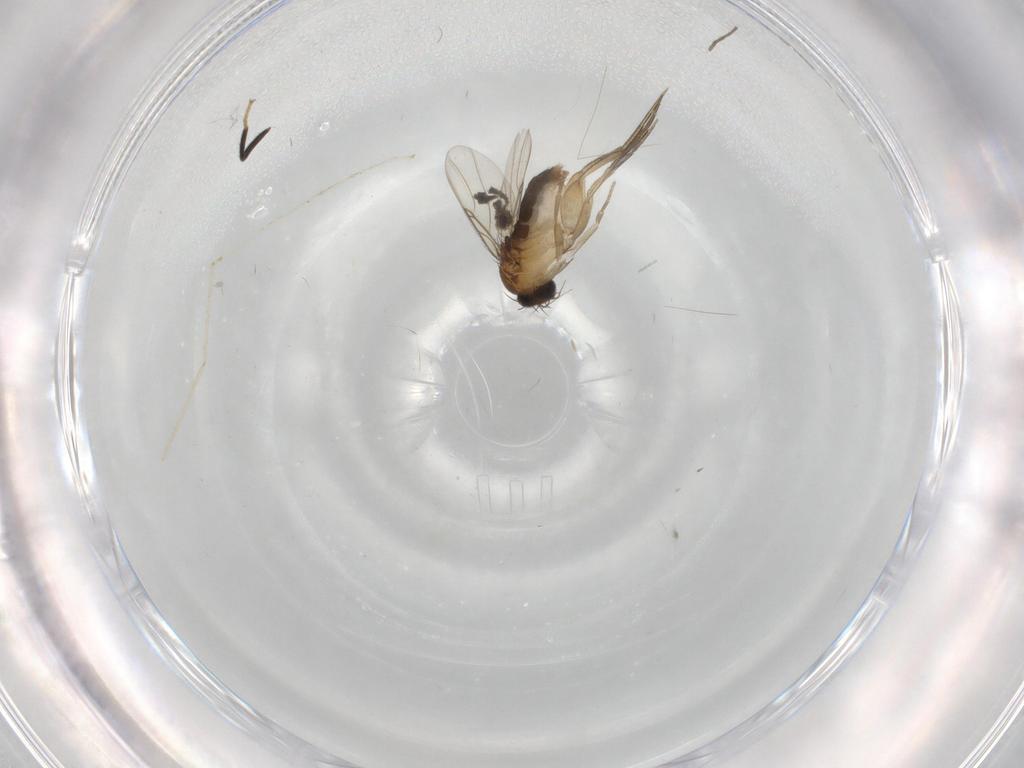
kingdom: Animalia
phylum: Arthropoda
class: Insecta
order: Diptera
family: Phoridae
